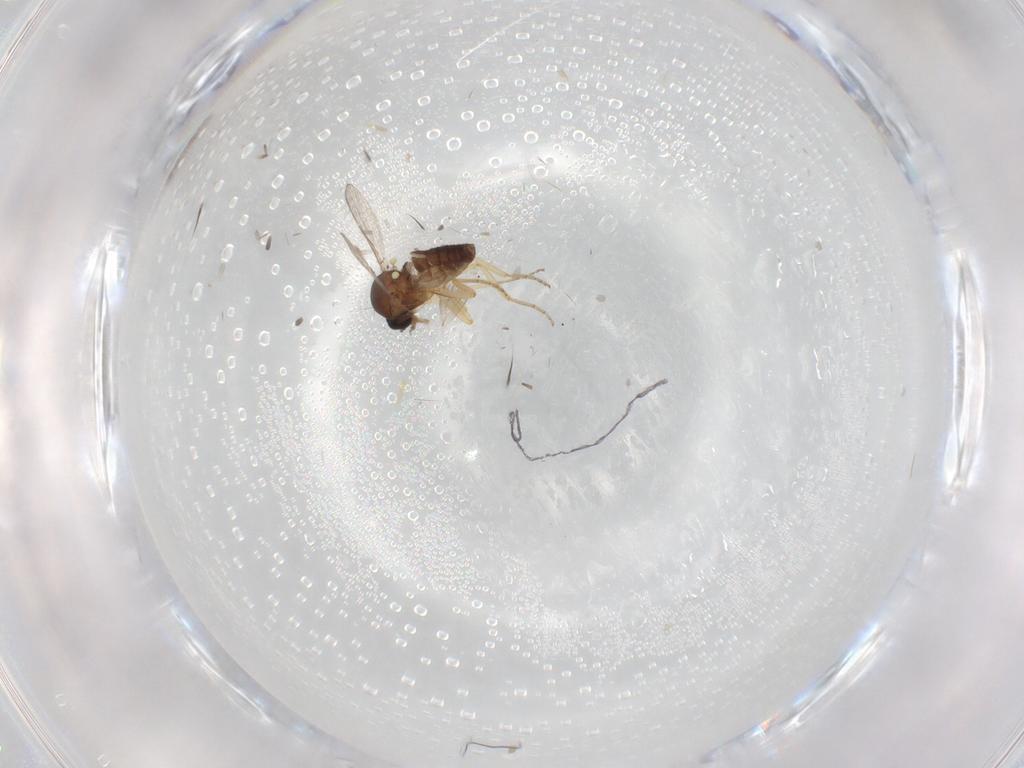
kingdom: Animalia
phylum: Arthropoda
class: Insecta
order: Diptera
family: Ceratopogonidae
